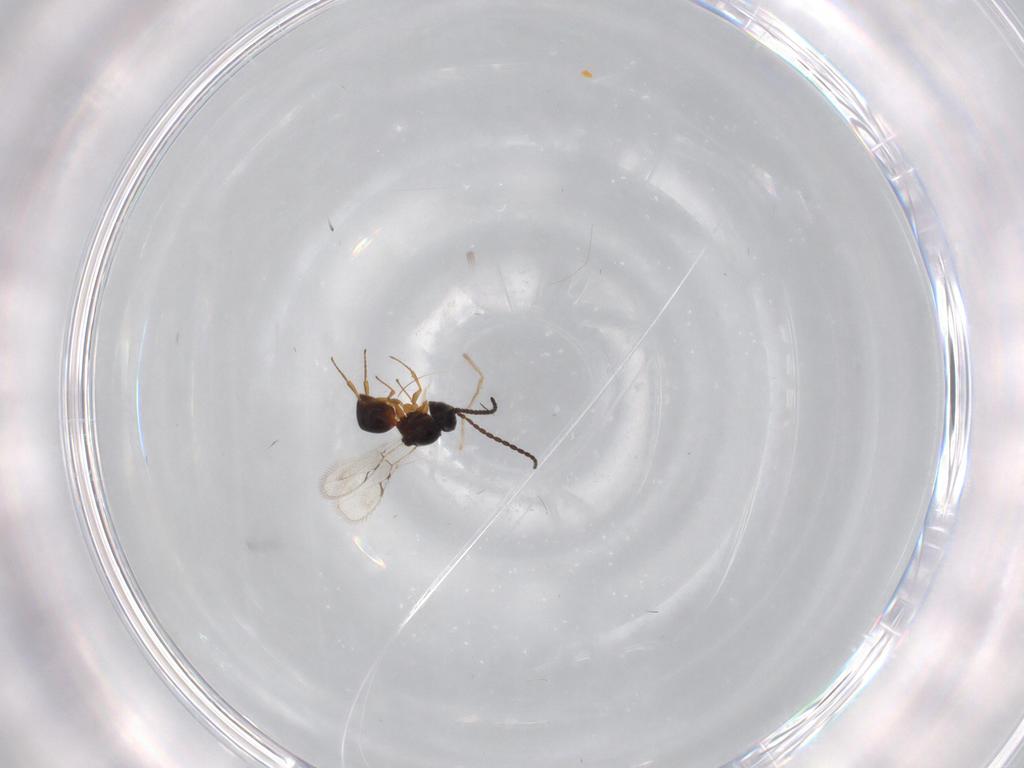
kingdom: Animalia
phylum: Arthropoda
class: Insecta
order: Hymenoptera
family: Figitidae
